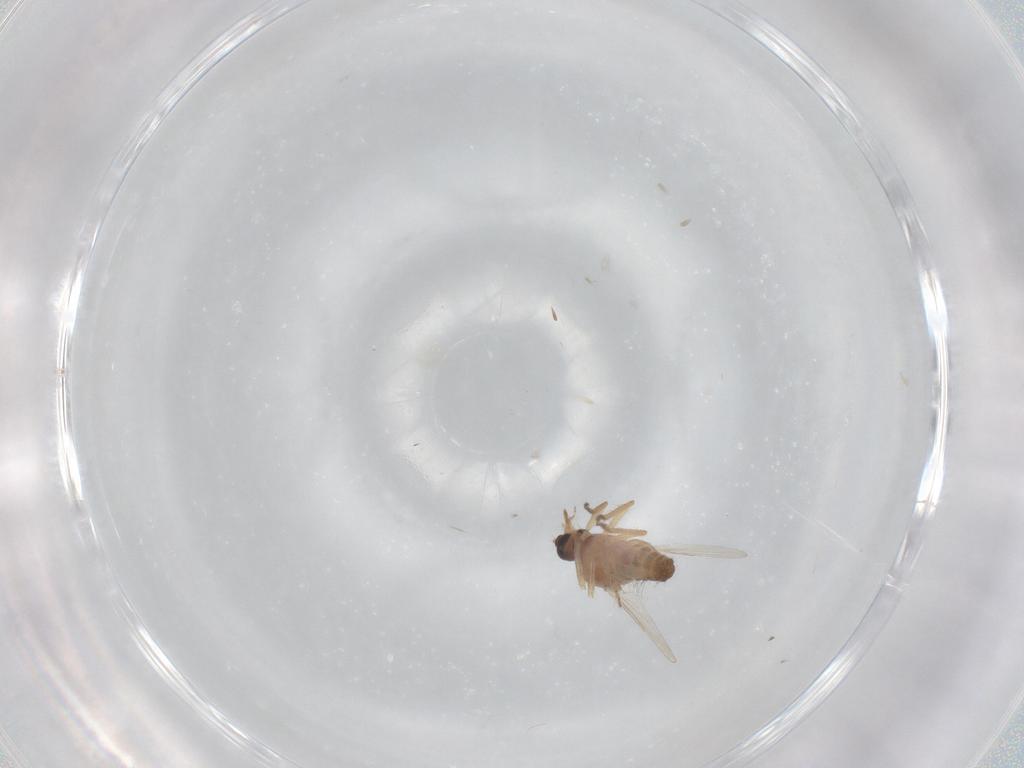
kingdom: Animalia
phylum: Arthropoda
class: Insecta
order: Diptera
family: Ceratopogonidae
